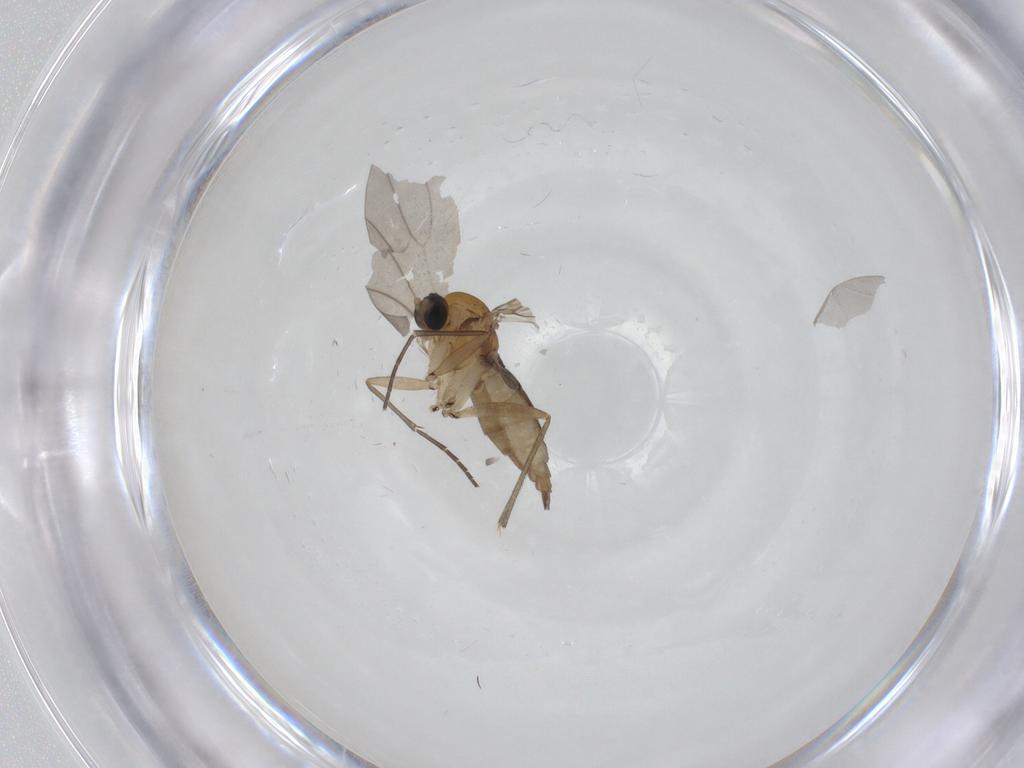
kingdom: Animalia
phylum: Arthropoda
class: Insecta
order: Diptera
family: Sciaridae
